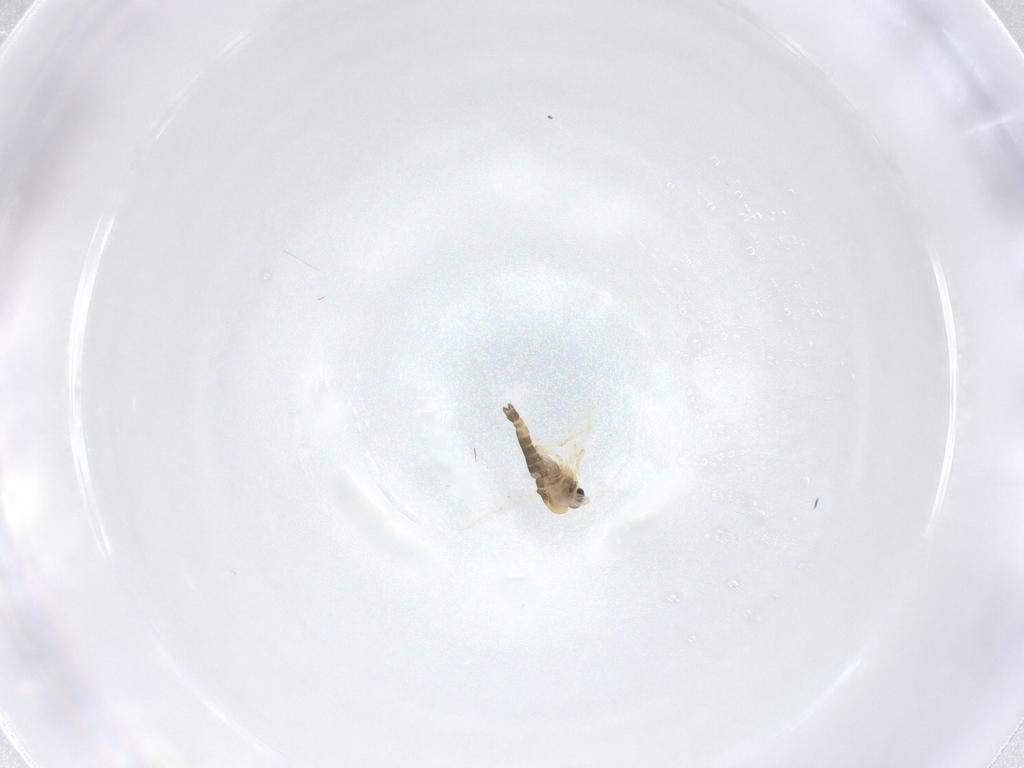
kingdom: Animalia
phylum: Arthropoda
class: Insecta
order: Diptera
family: Chironomidae
